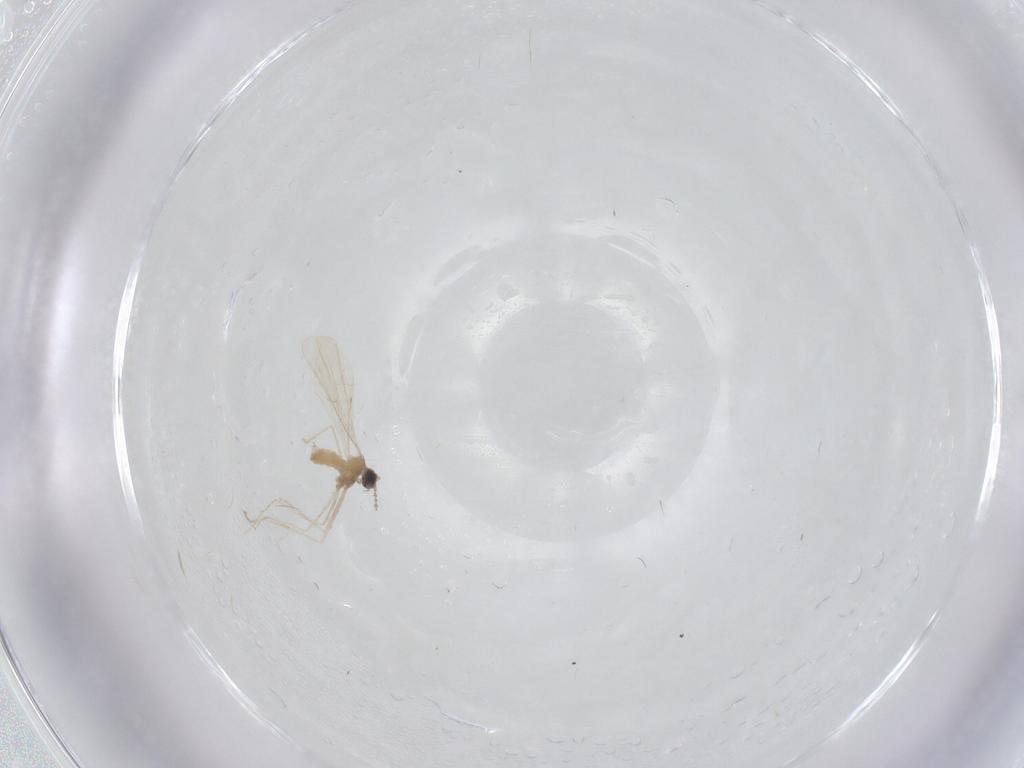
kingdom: Animalia
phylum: Arthropoda
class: Insecta
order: Diptera
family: Limoniidae
